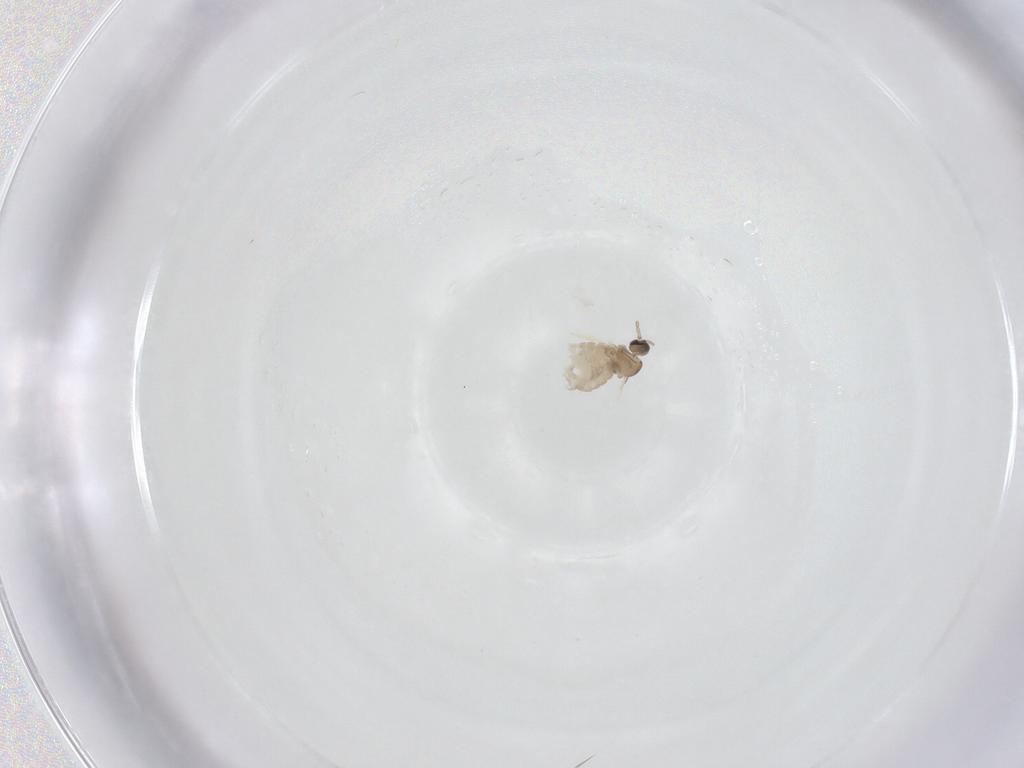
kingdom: Animalia
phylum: Arthropoda
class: Insecta
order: Diptera
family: Cecidomyiidae
